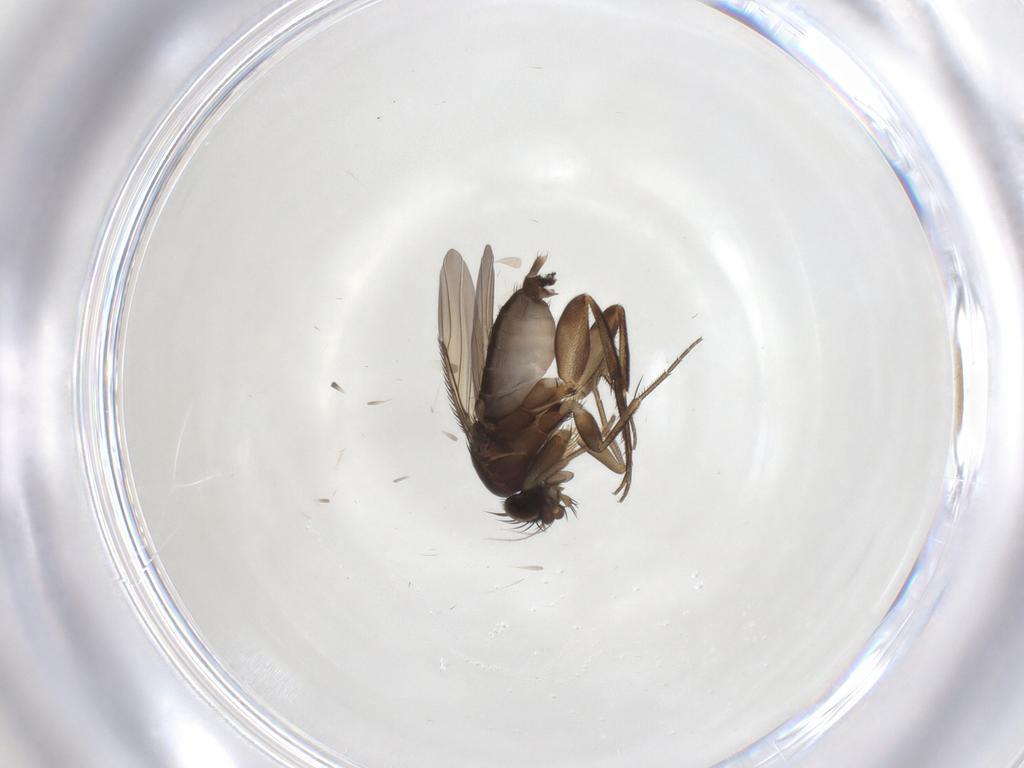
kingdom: Animalia
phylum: Arthropoda
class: Insecta
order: Diptera
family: Phoridae
